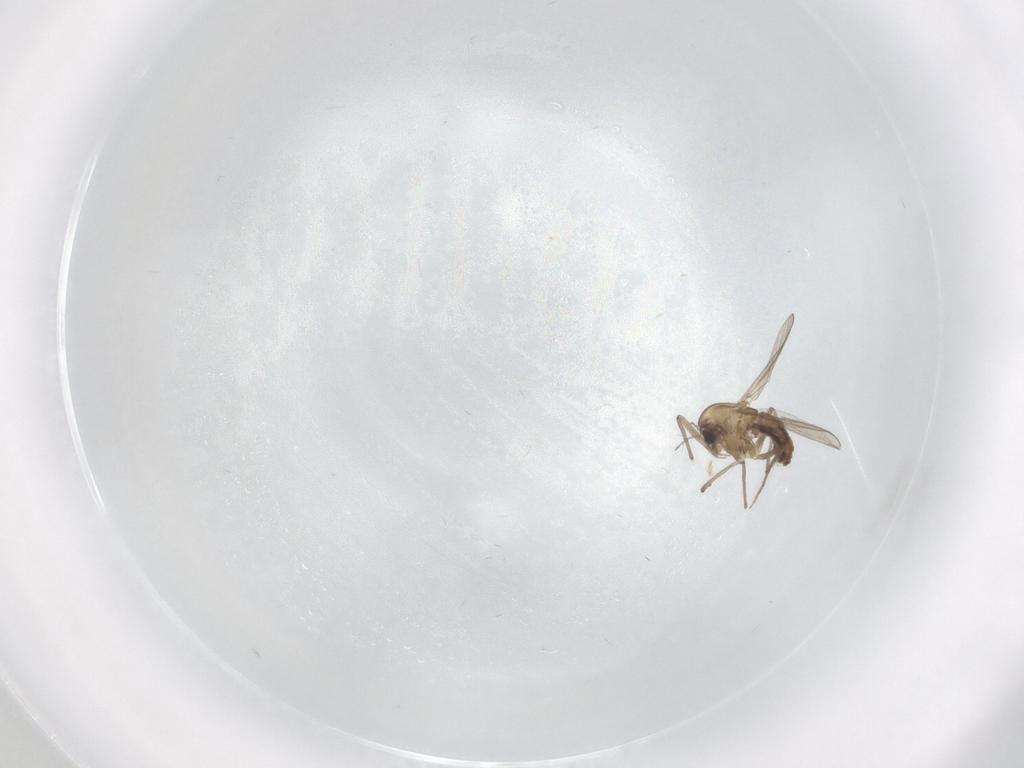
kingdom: Animalia
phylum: Arthropoda
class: Insecta
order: Diptera
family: Chironomidae
